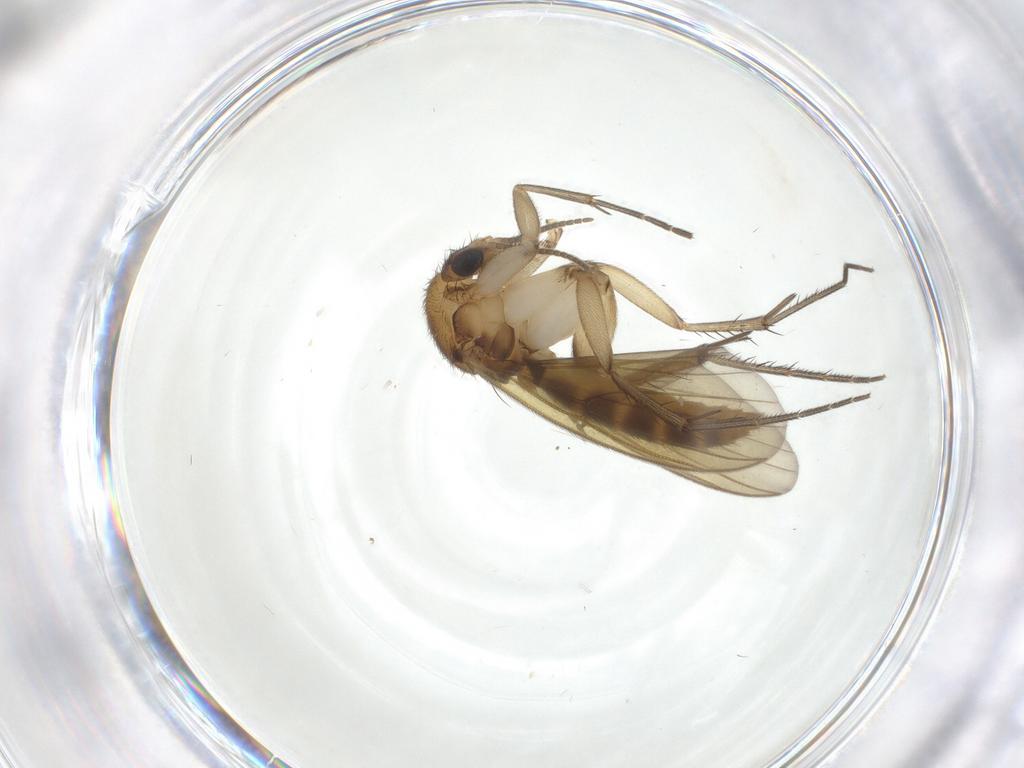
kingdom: Animalia
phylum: Arthropoda
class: Insecta
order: Diptera
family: Mycetophilidae
